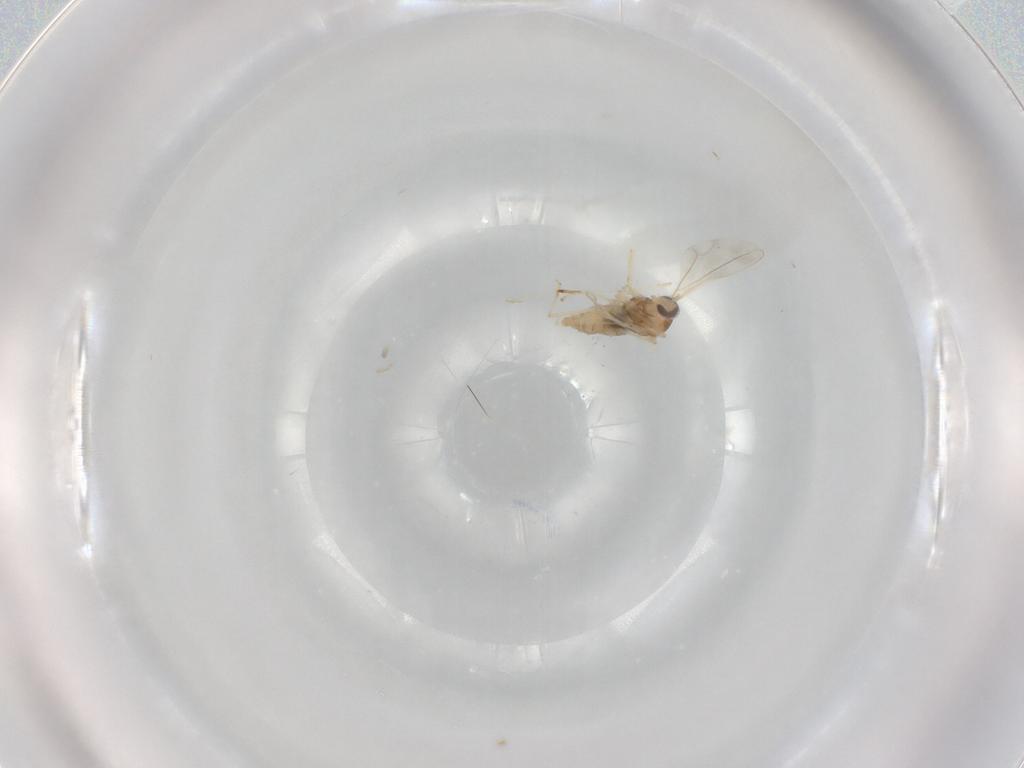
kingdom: Animalia
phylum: Arthropoda
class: Insecta
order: Diptera
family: Cecidomyiidae
